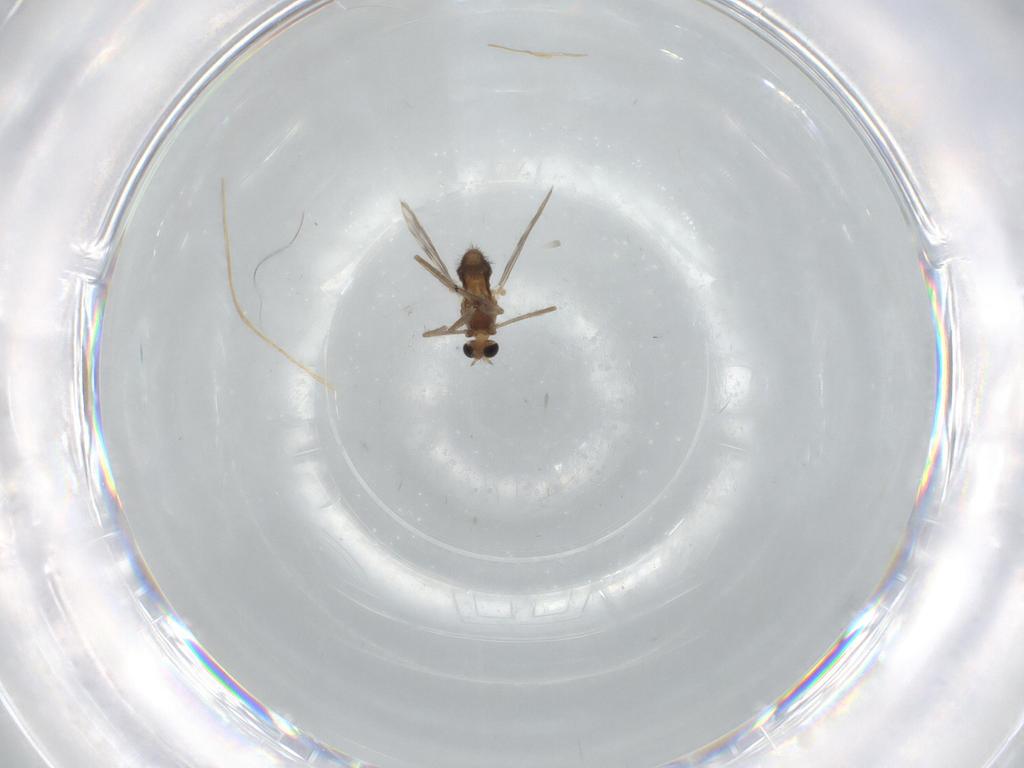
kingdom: Animalia
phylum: Arthropoda
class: Insecta
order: Diptera
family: Chironomidae
